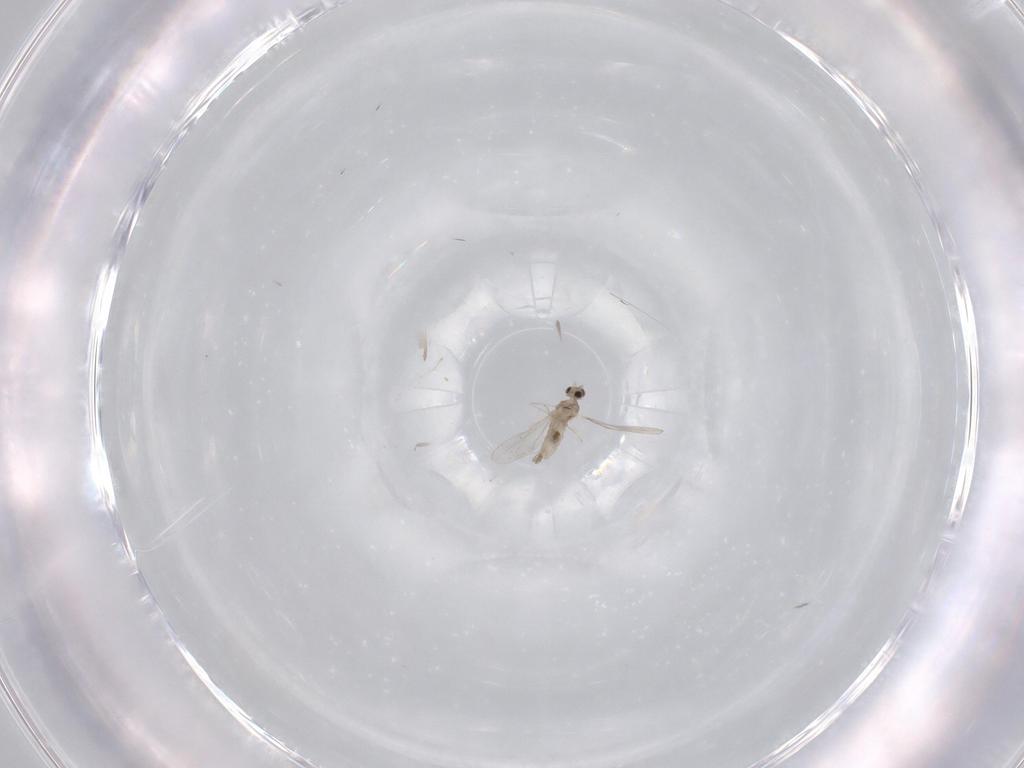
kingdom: Animalia
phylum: Arthropoda
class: Insecta
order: Diptera
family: Cecidomyiidae
